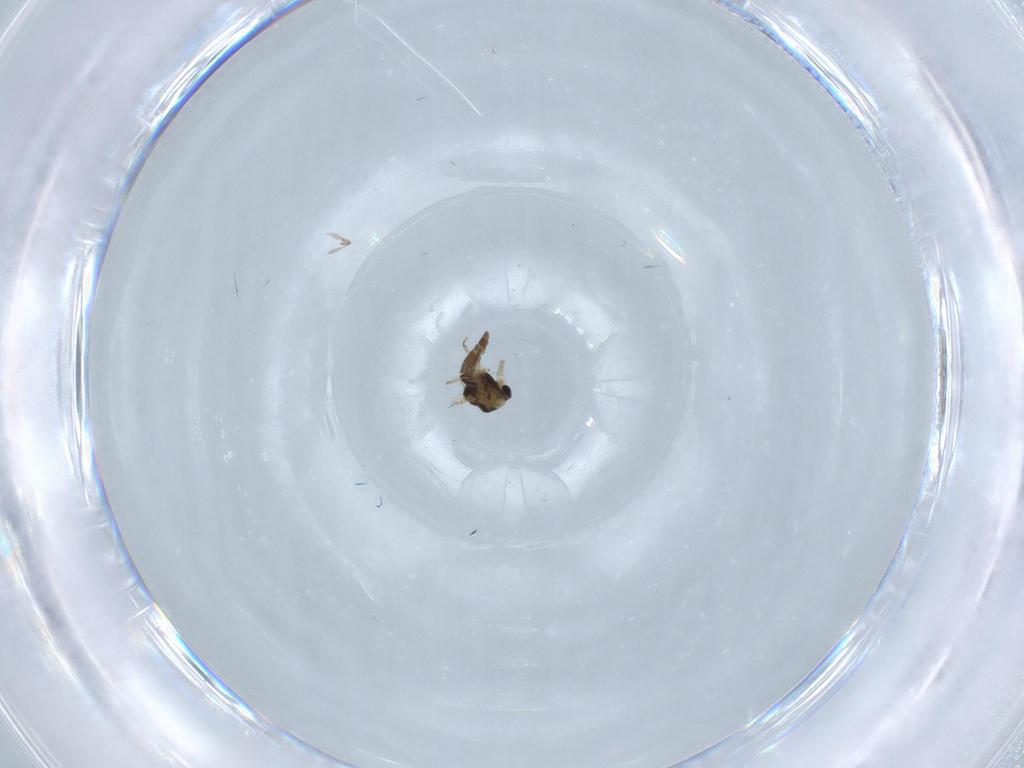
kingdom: Animalia
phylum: Arthropoda
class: Insecta
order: Diptera
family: Chironomidae
